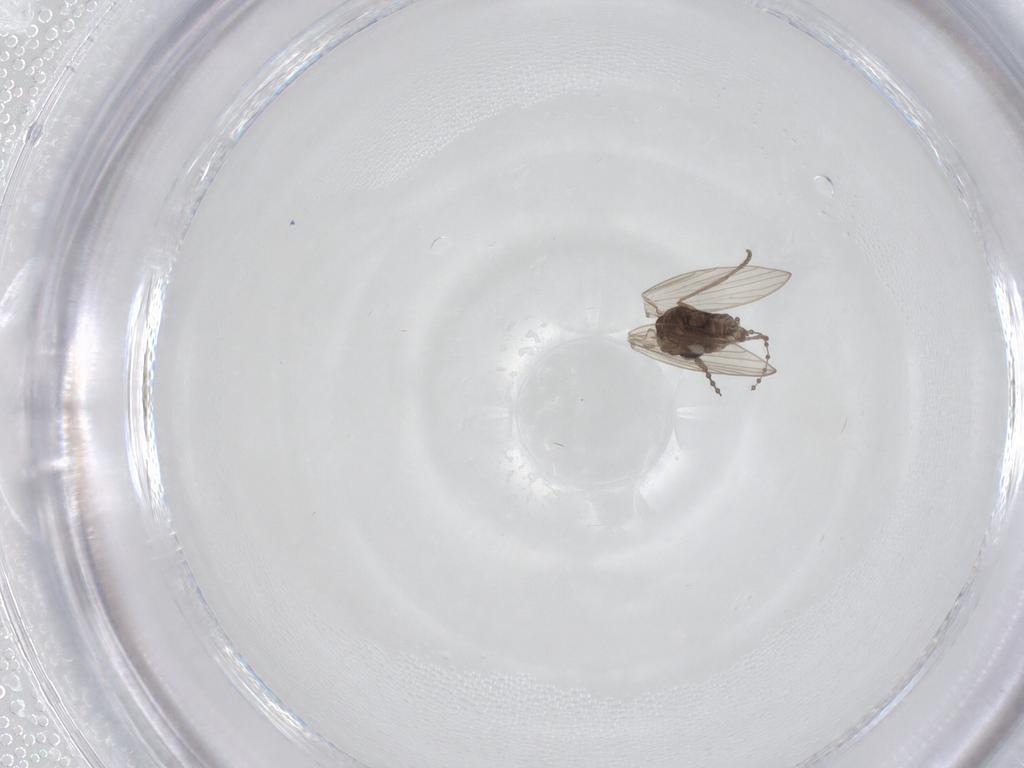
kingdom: Animalia
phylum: Arthropoda
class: Insecta
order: Diptera
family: Psychodidae
